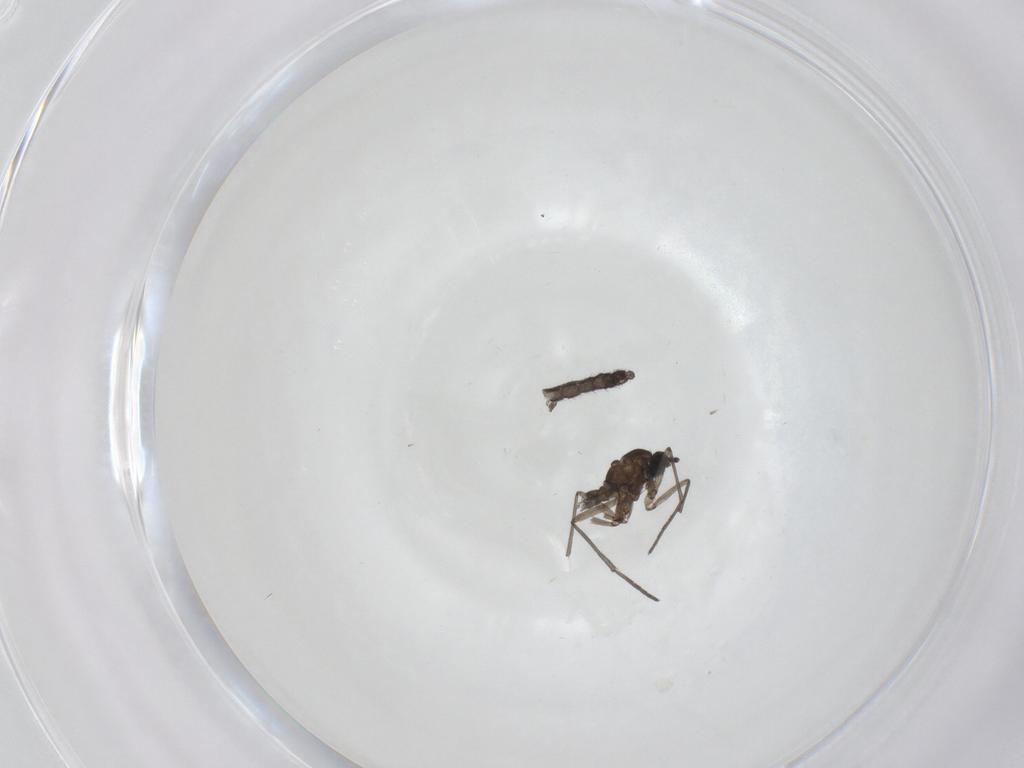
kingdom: Animalia
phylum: Arthropoda
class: Insecta
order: Diptera
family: Chironomidae
